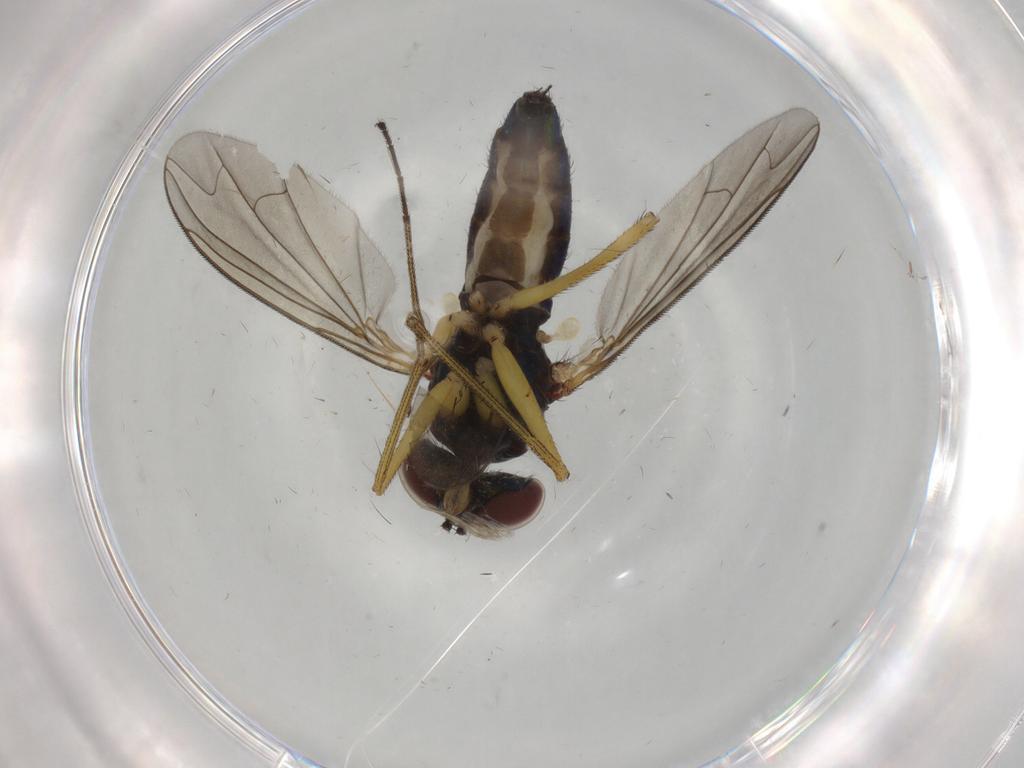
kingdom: Animalia
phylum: Arthropoda
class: Insecta
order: Diptera
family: Dolichopodidae
